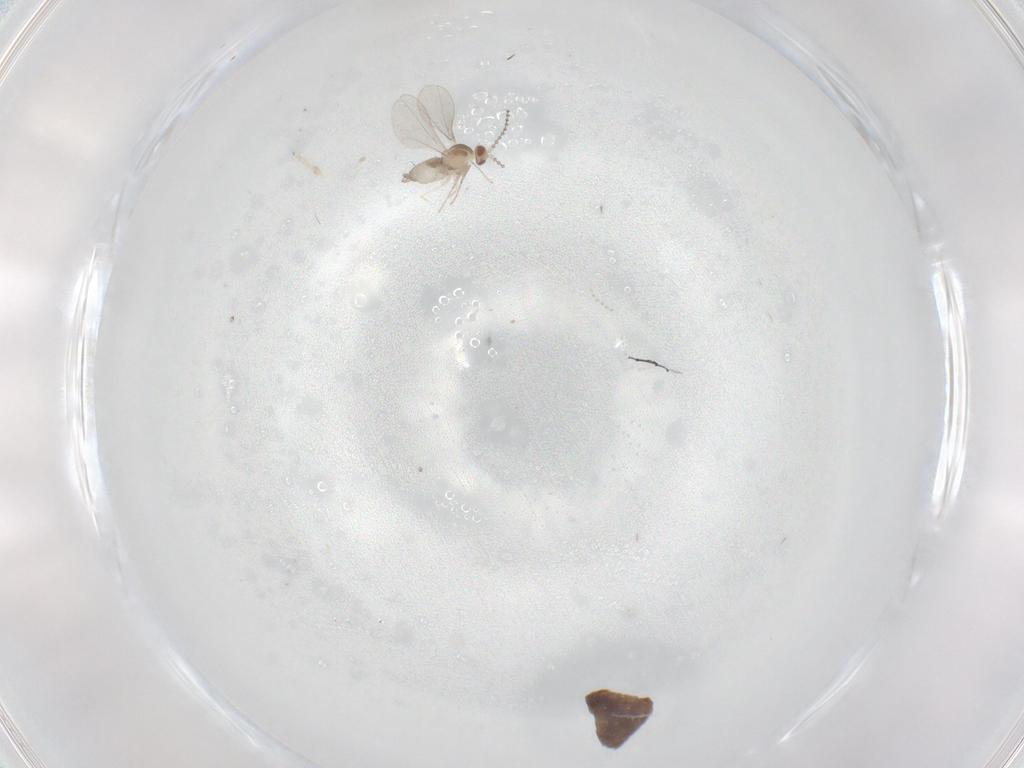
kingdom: Animalia
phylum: Arthropoda
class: Insecta
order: Diptera
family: Cecidomyiidae
